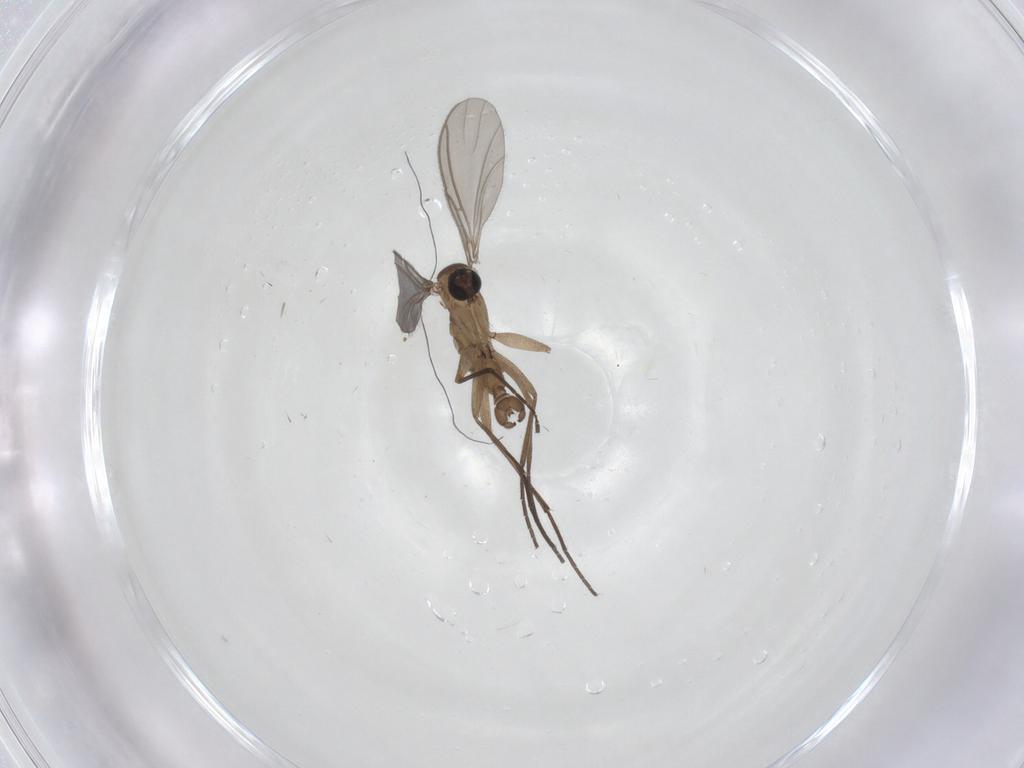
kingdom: Animalia
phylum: Arthropoda
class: Insecta
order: Diptera
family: Sciaridae
